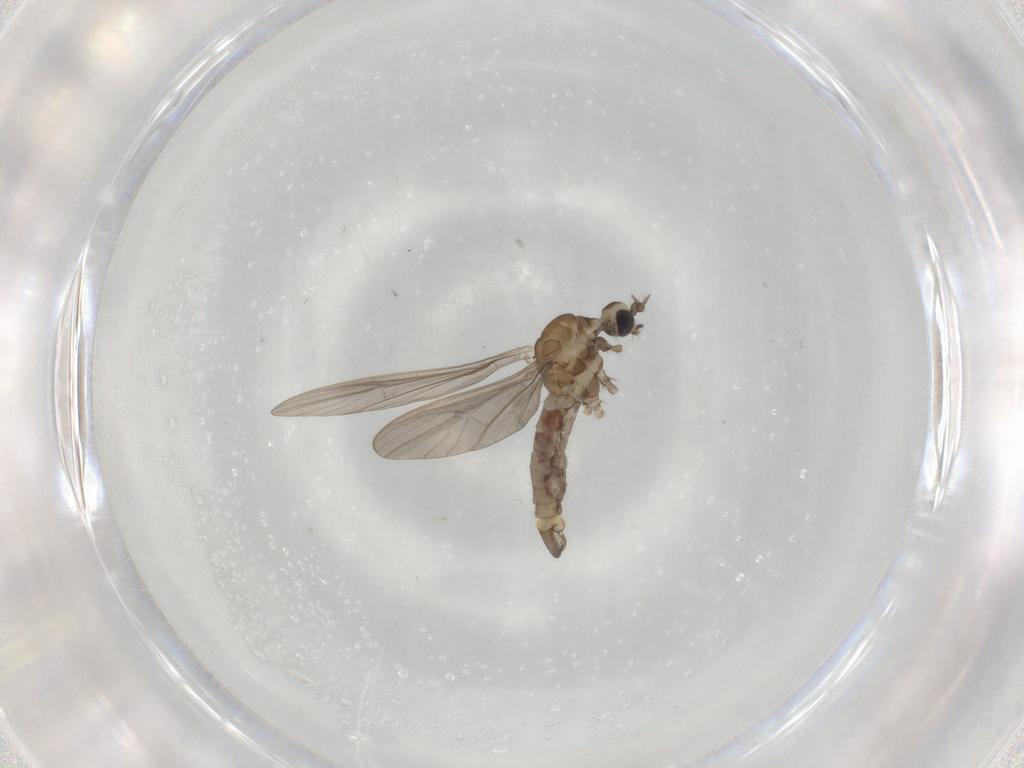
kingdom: Animalia
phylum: Arthropoda
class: Insecta
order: Diptera
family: Limoniidae
